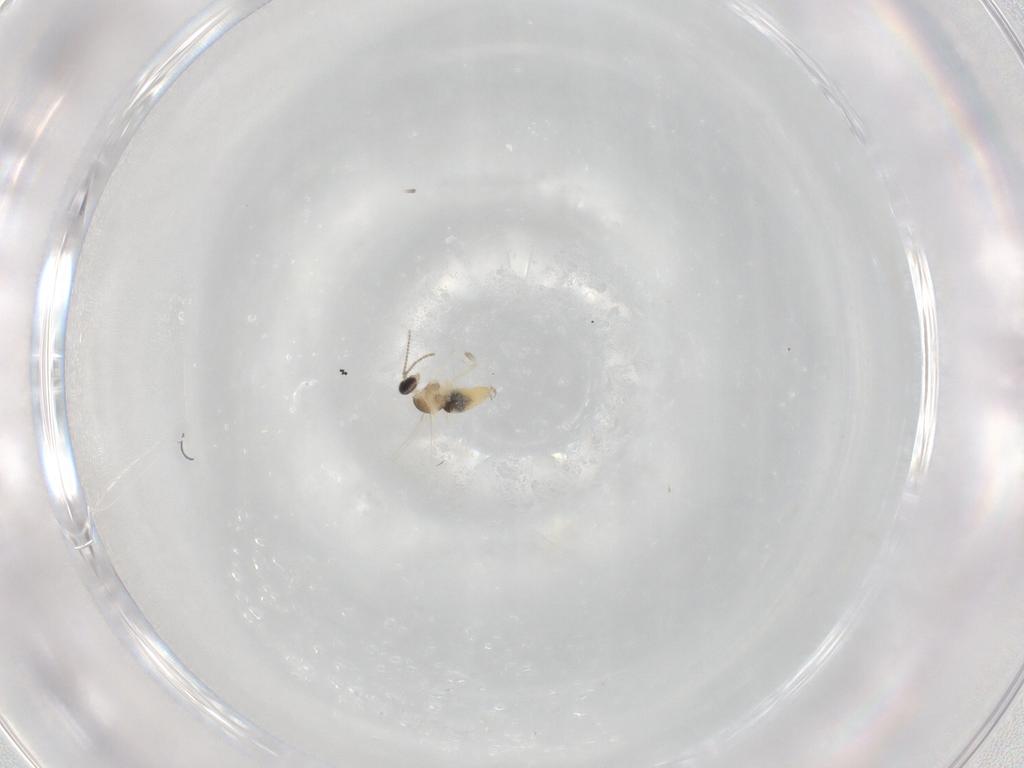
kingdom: Animalia
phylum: Arthropoda
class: Insecta
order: Diptera
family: Cecidomyiidae
